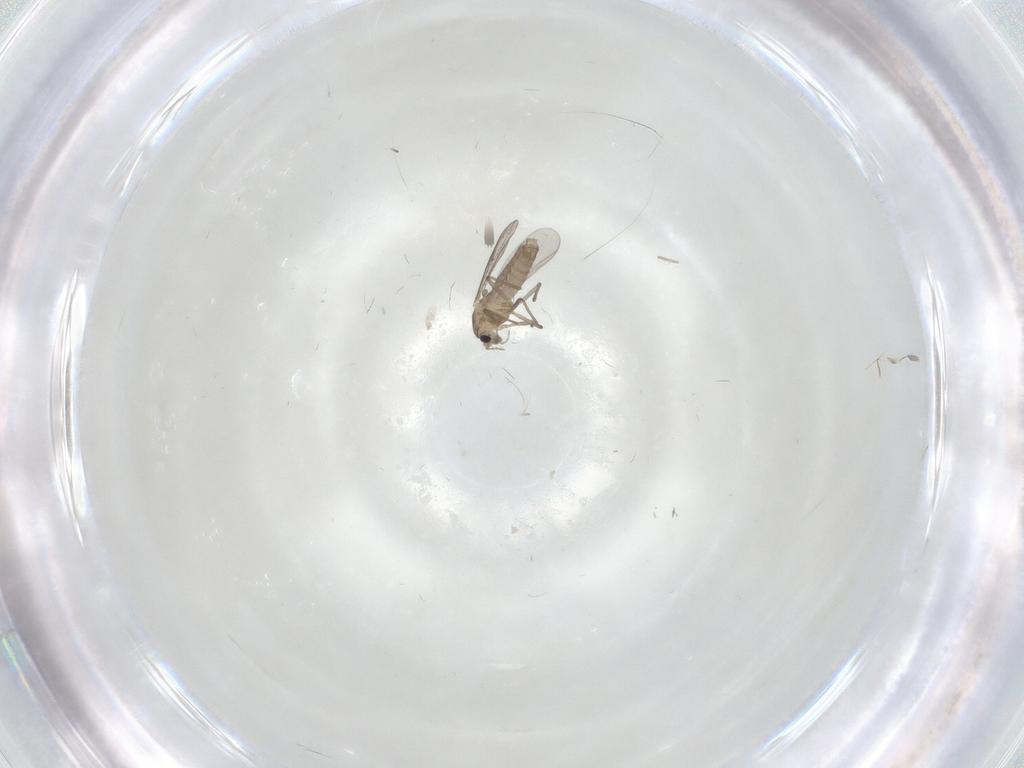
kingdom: Animalia
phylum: Arthropoda
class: Insecta
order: Diptera
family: Chironomidae
